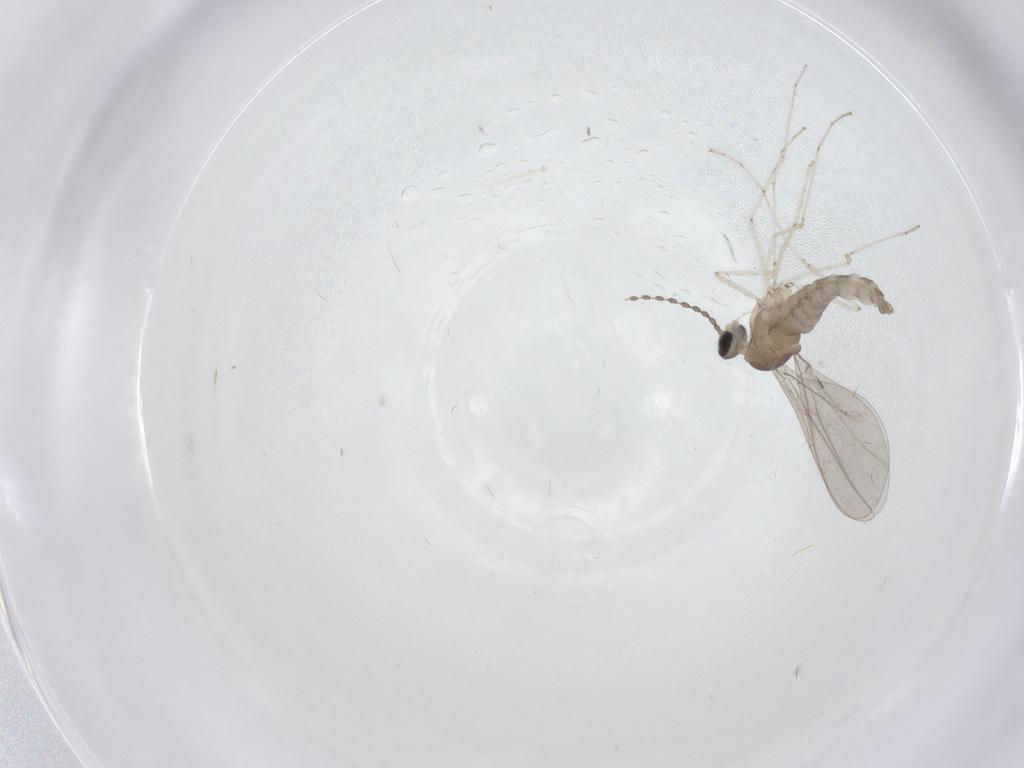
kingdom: Animalia
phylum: Arthropoda
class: Insecta
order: Diptera
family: Cecidomyiidae
